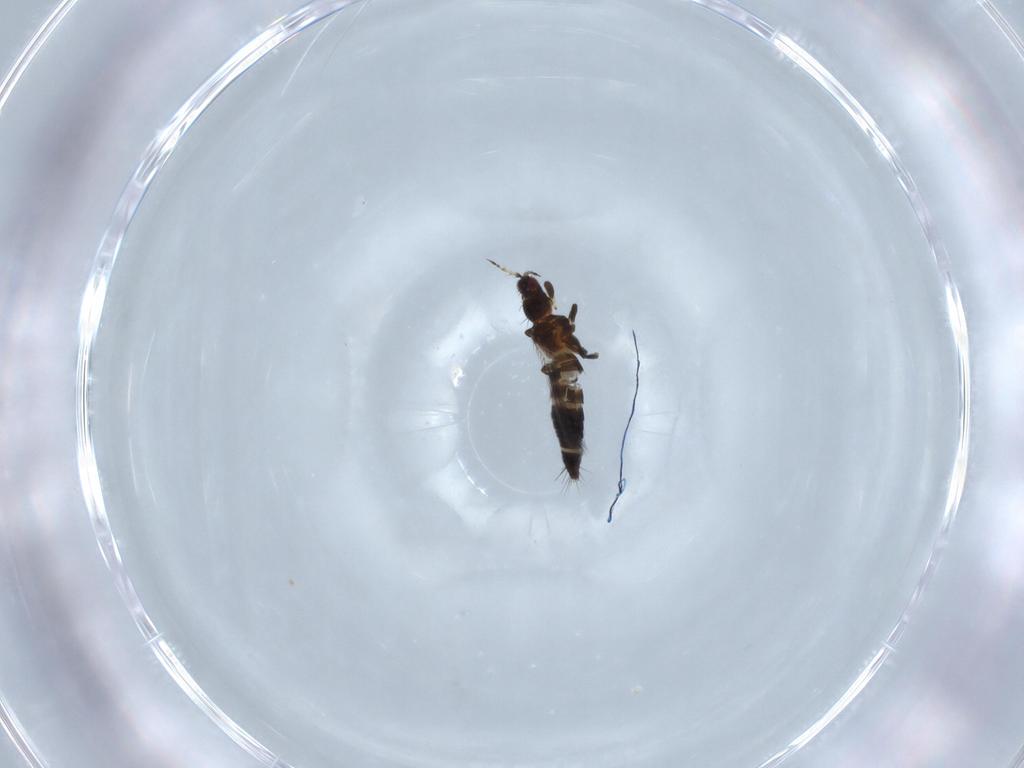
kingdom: Animalia
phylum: Arthropoda
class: Insecta
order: Thysanoptera
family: Thripidae
